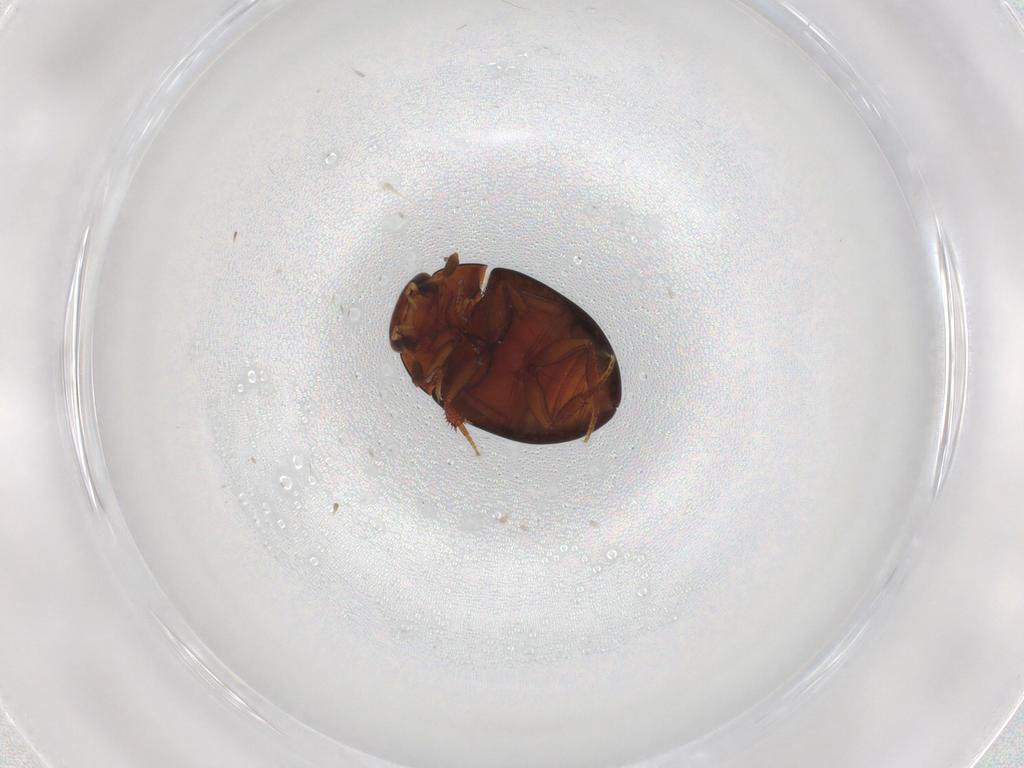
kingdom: Animalia
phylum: Arthropoda
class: Insecta
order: Coleoptera
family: Hydrophilidae
